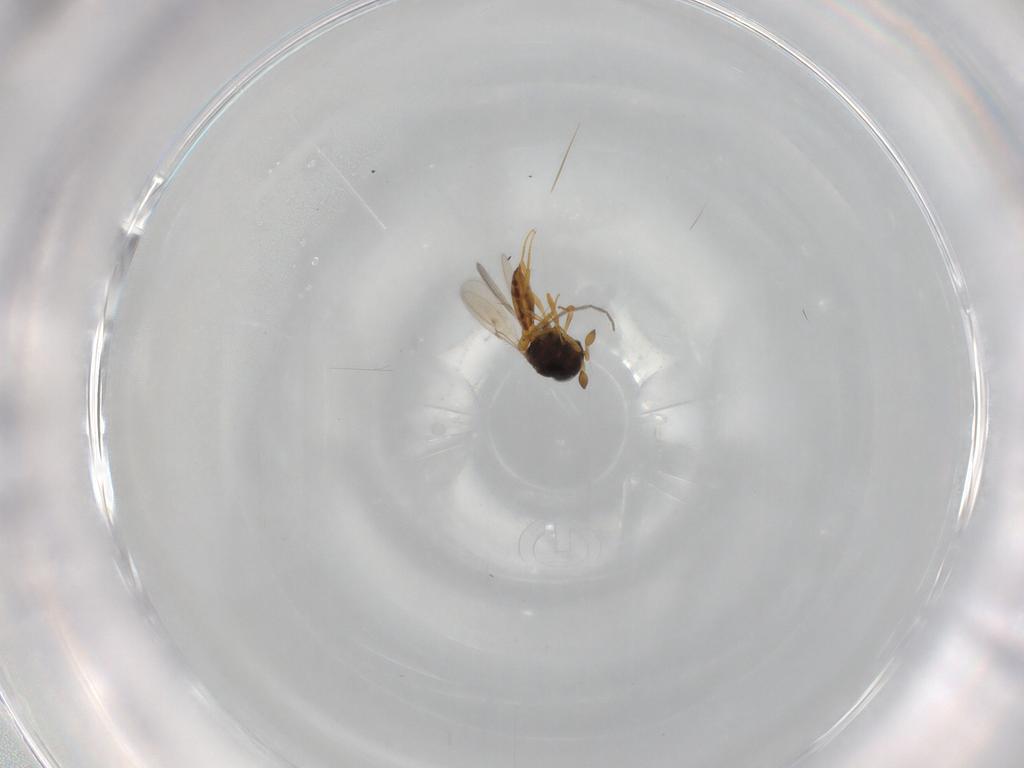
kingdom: Animalia
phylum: Arthropoda
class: Insecta
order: Hymenoptera
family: Scelionidae
